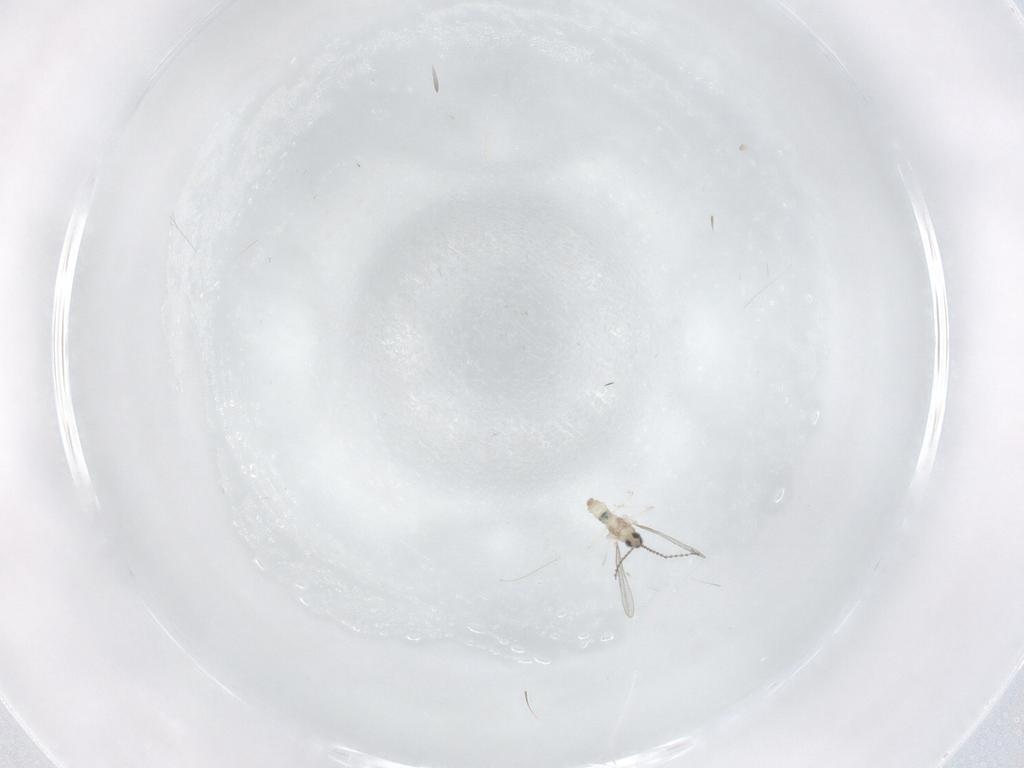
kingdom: Animalia
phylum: Arthropoda
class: Insecta
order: Diptera
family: Cecidomyiidae
